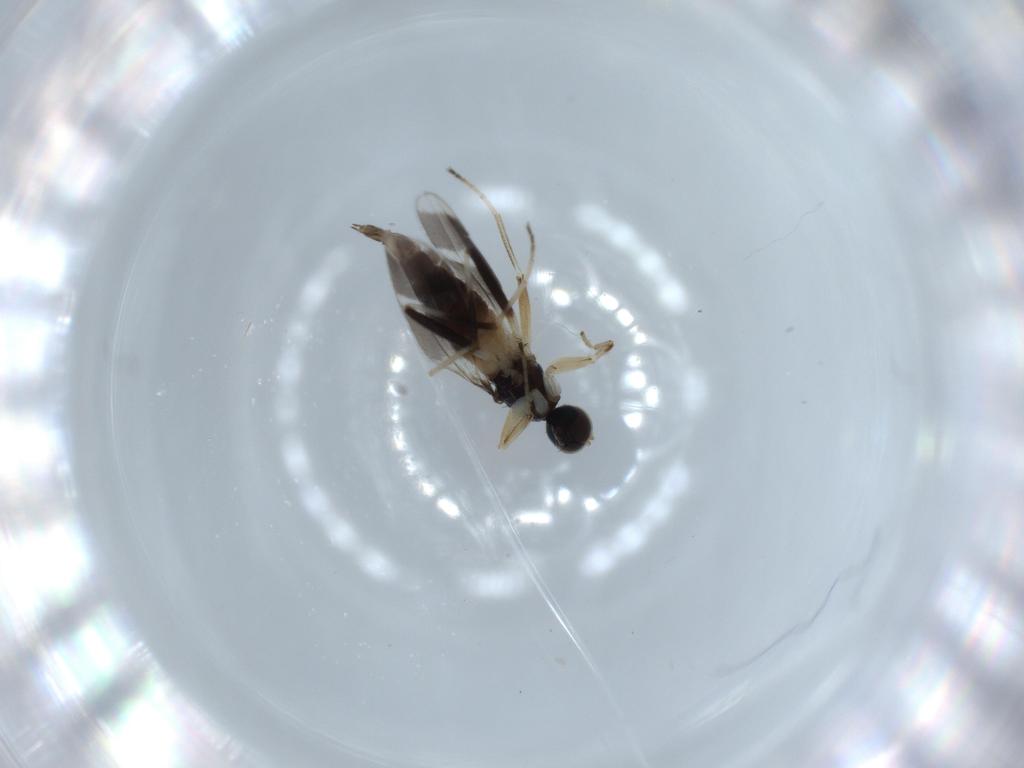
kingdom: Animalia
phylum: Arthropoda
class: Insecta
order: Diptera
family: Hybotidae
